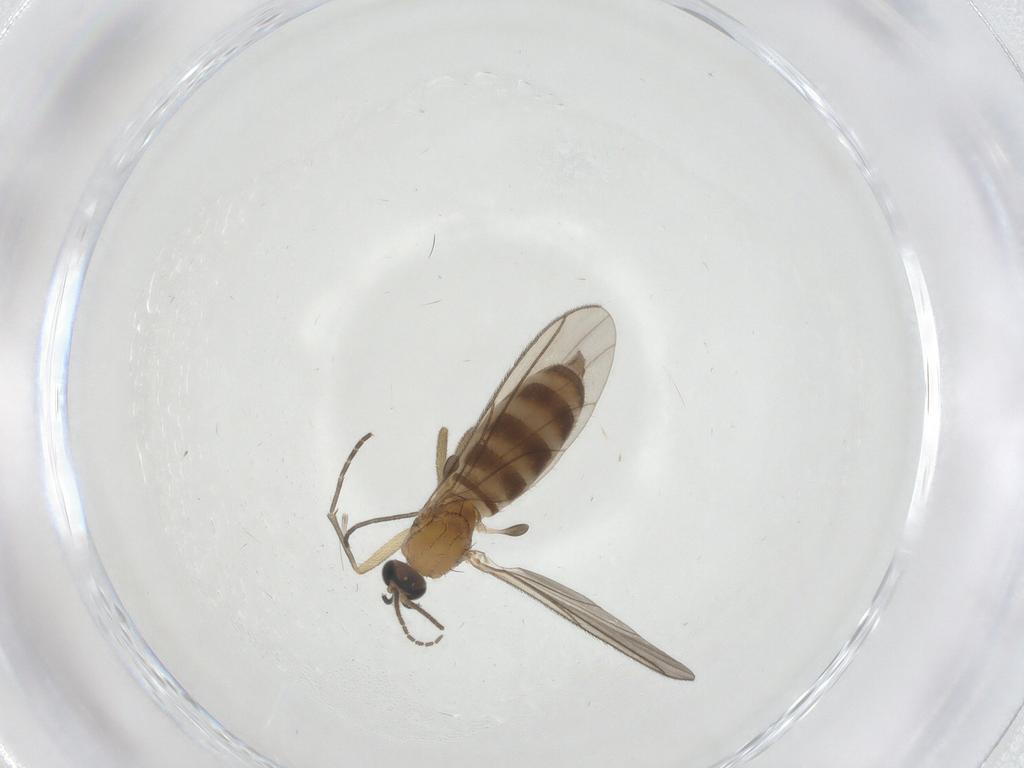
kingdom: Animalia
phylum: Arthropoda
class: Insecta
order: Diptera
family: Sciaridae
